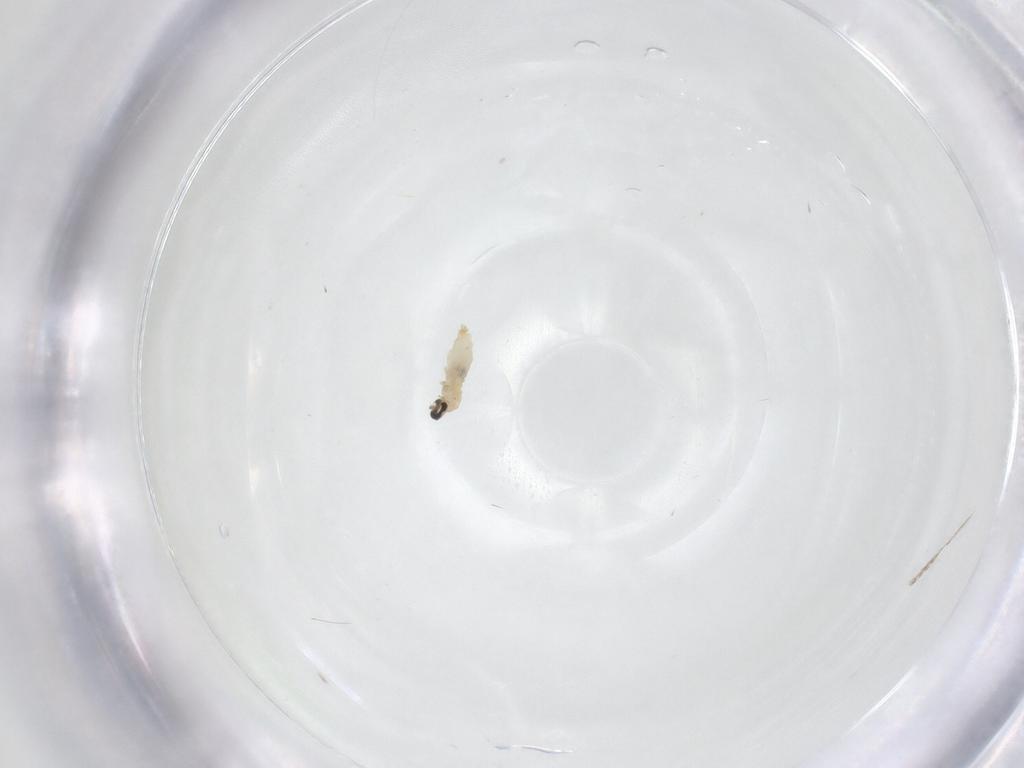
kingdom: Animalia
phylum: Arthropoda
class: Insecta
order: Diptera
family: Cecidomyiidae
